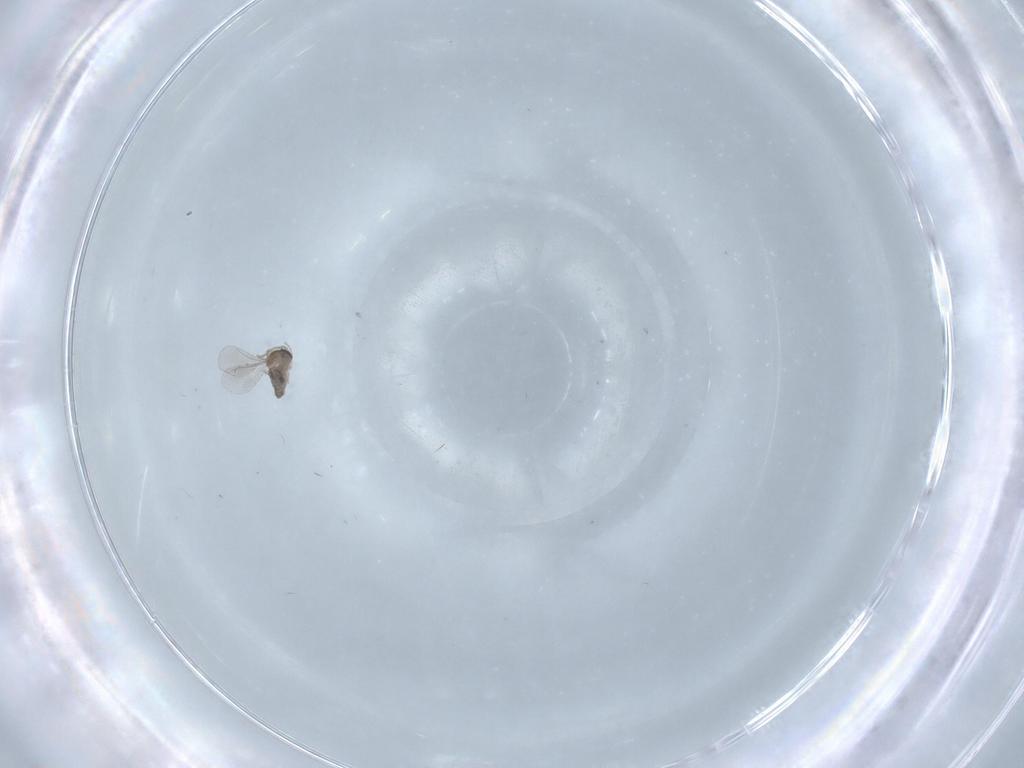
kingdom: Animalia
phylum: Arthropoda
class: Insecta
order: Diptera
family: Cecidomyiidae
